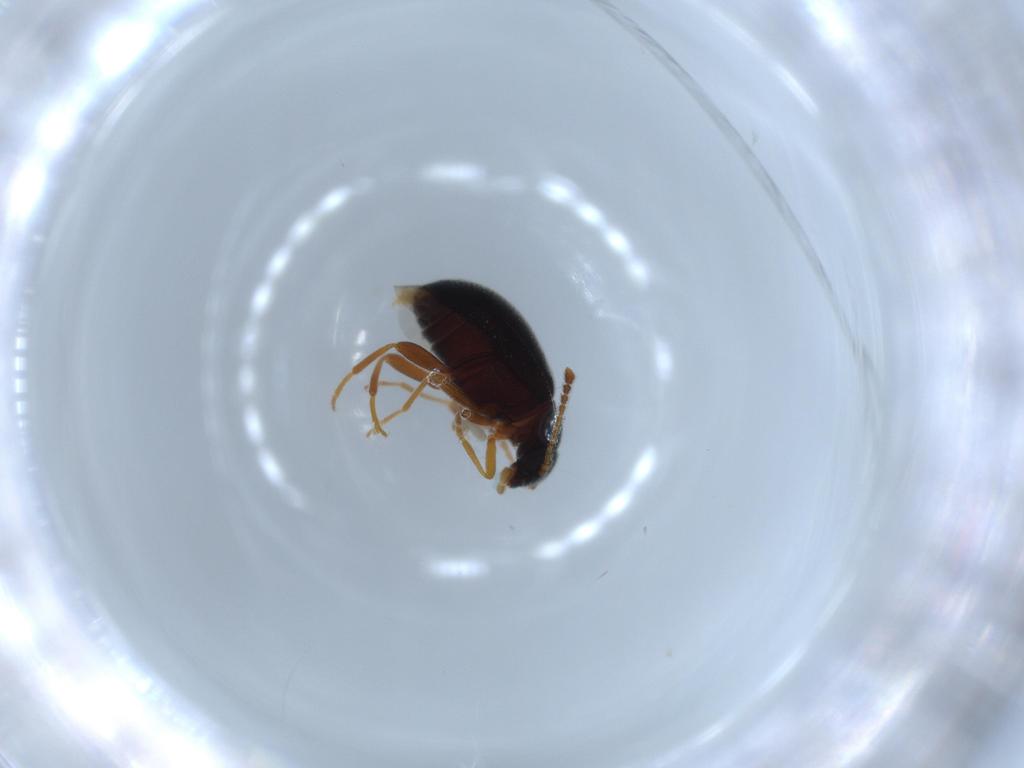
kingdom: Animalia
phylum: Arthropoda
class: Insecta
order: Coleoptera
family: Aderidae
